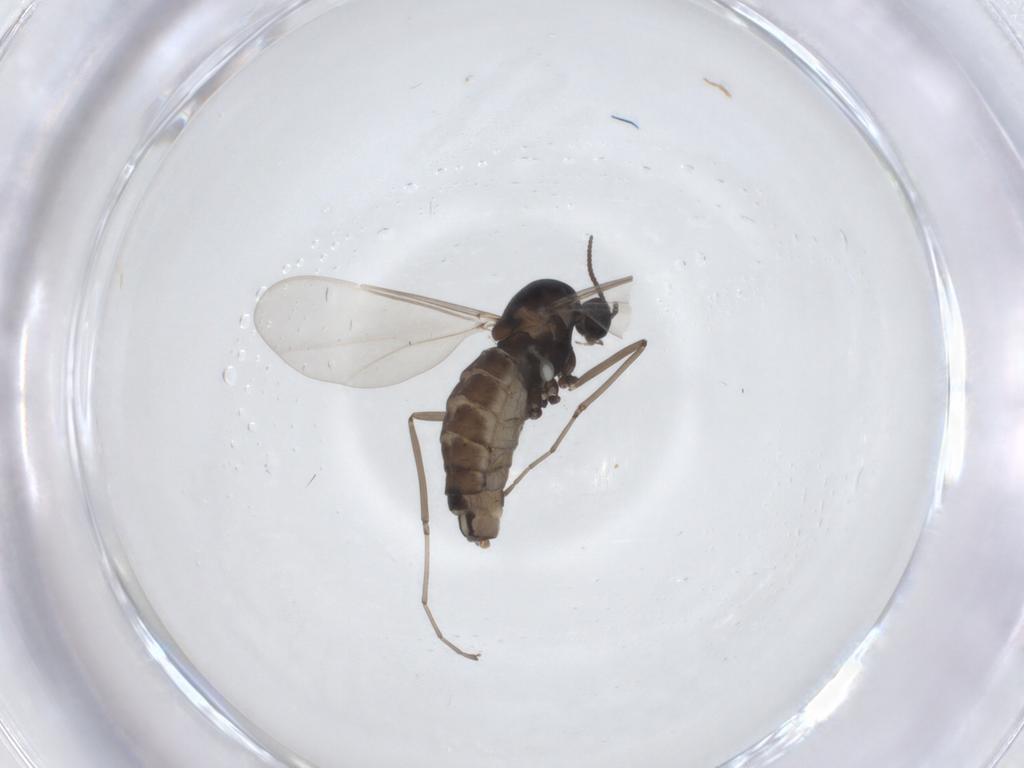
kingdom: Animalia
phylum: Arthropoda
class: Insecta
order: Diptera
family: Cecidomyiidae
